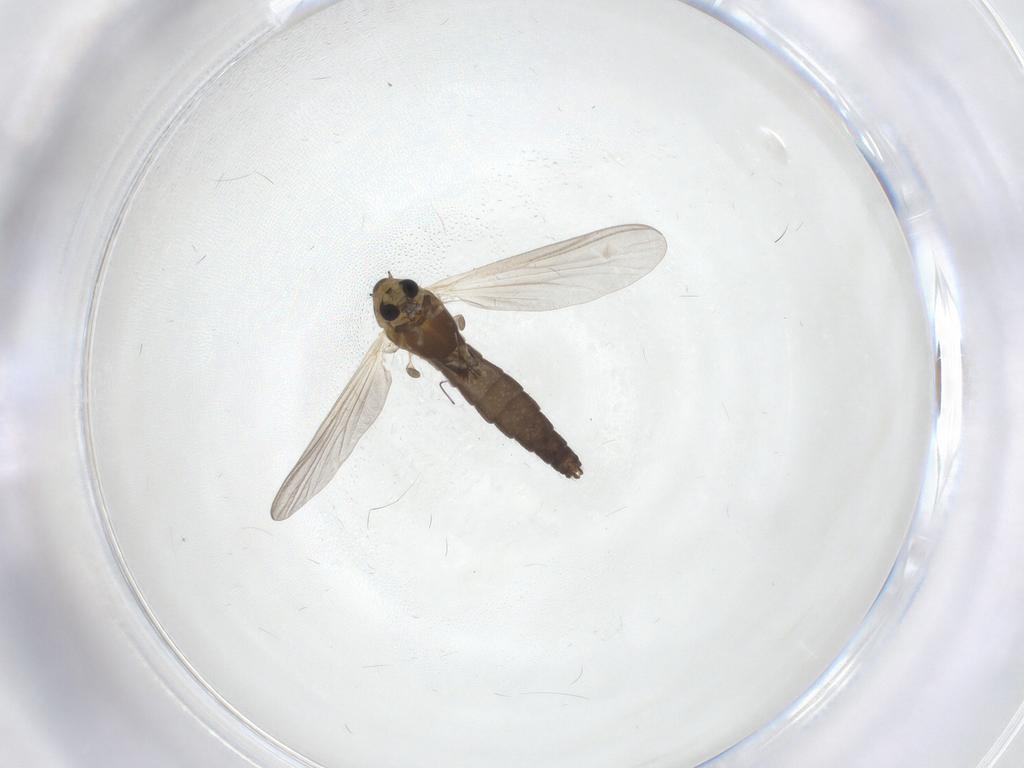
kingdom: Animalia
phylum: Arthropoda
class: Insecta
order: Diptera
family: Chironomidae
